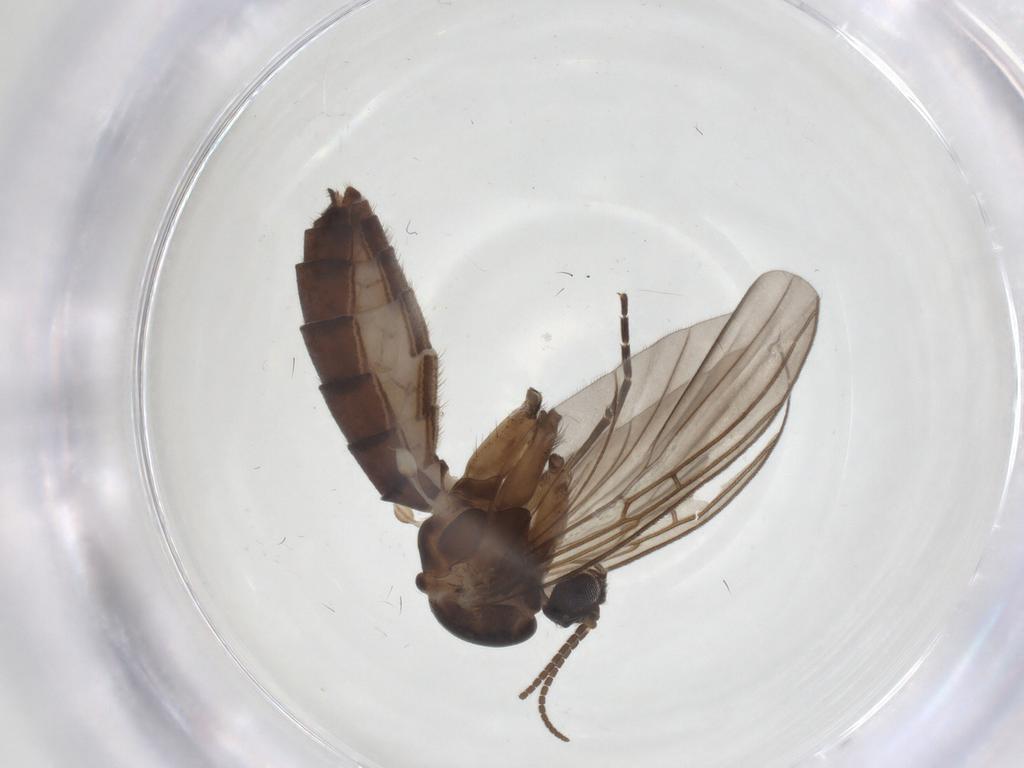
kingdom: Animalia
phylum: Arthropoda
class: Insecta
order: Diptera
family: Mycetophilidae
